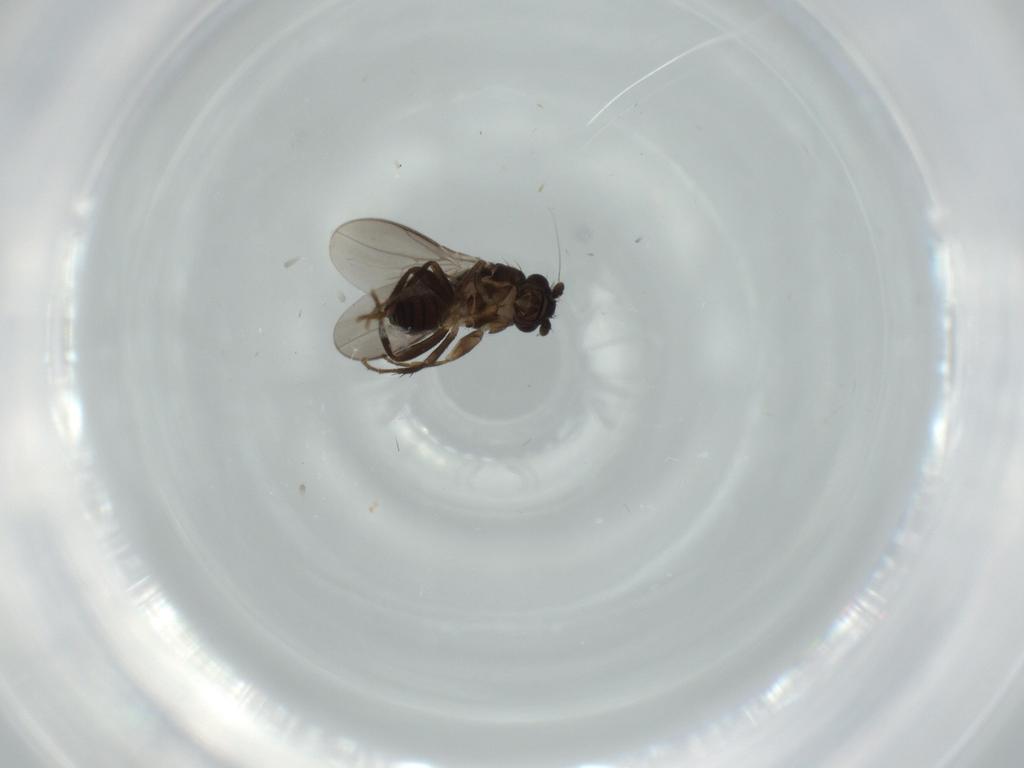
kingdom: Animalia
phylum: Arthropoda
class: Insecta
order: Diptera
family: Sphaeroceridae
